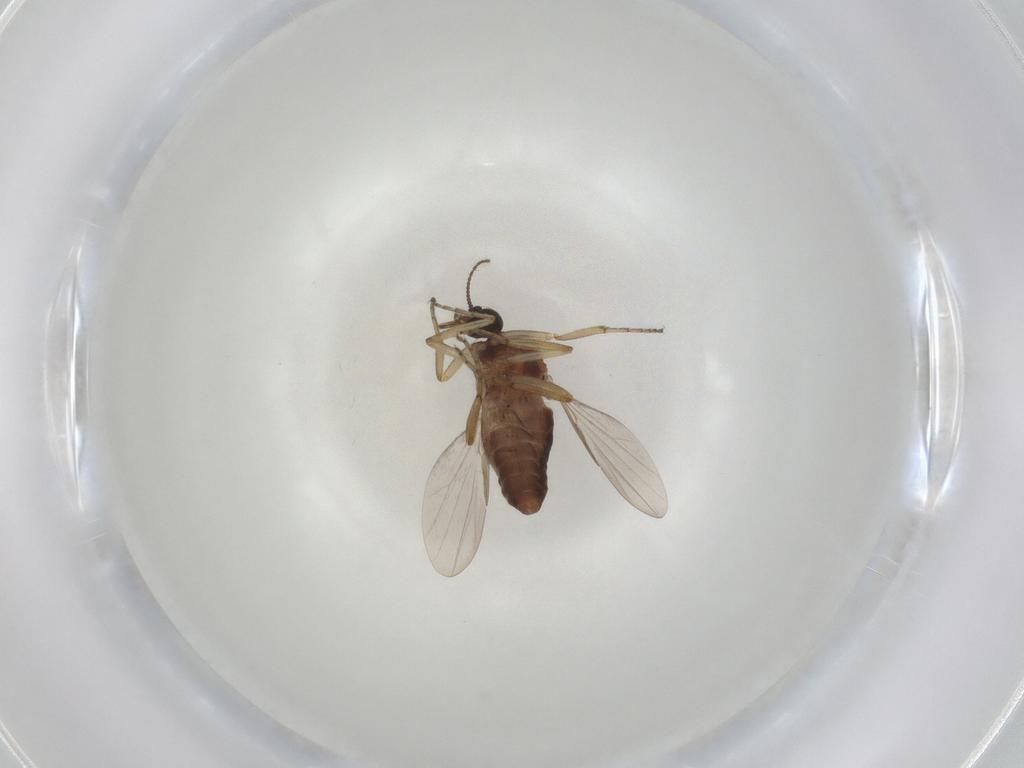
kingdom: Animalia
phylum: Arthropoda
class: Insecta
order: Diptera
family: Ceratopogonidae
